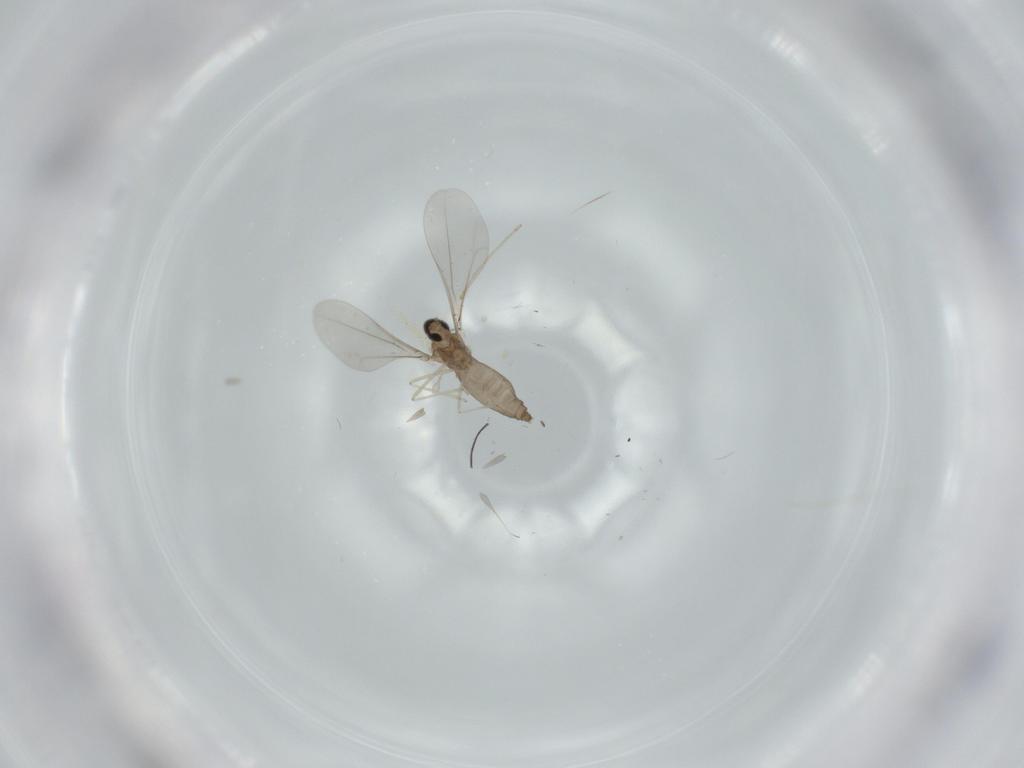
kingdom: Animalia
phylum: Arthropoda
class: Insecta
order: Diptera
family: Cecidomyiidae
